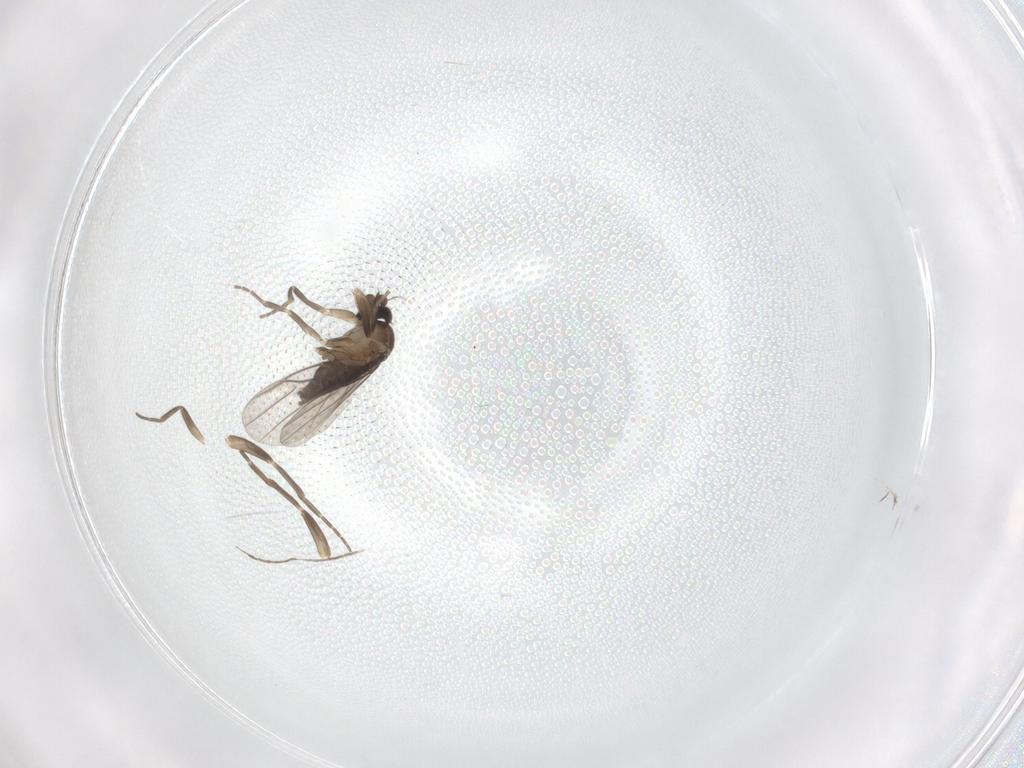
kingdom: Animalia
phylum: Arthropoda
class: Insecta
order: Diptera
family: Phoridae
